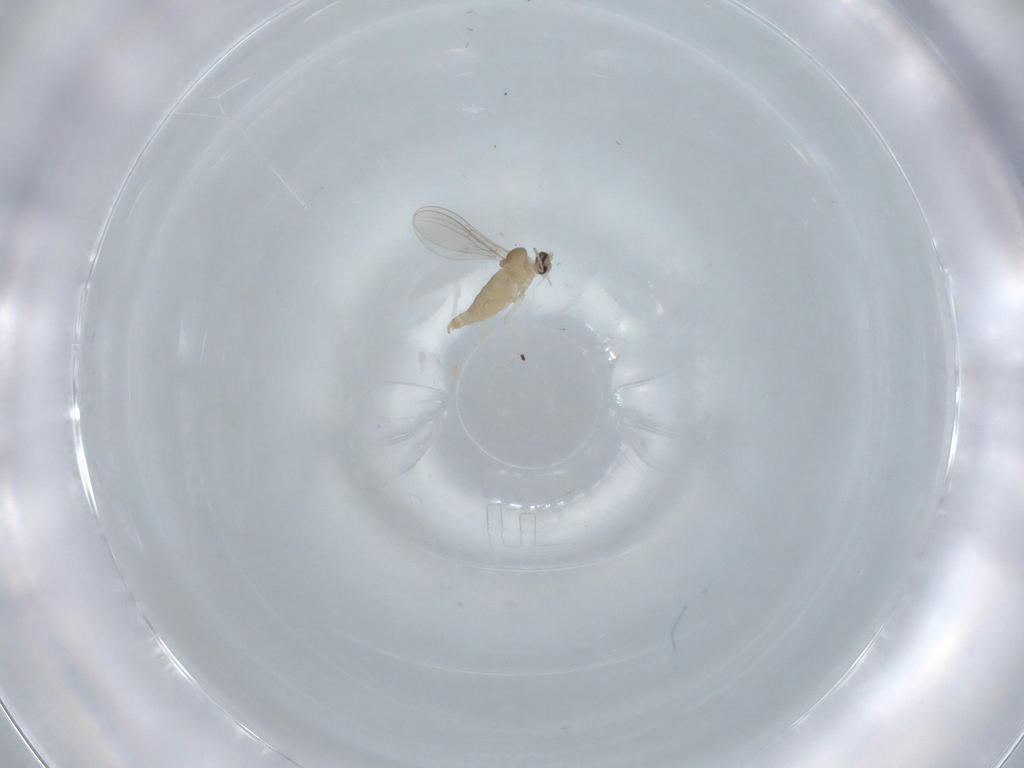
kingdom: Animalia
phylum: Arthropoda
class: Insecta
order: Diptera
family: Cecidomyiidae
